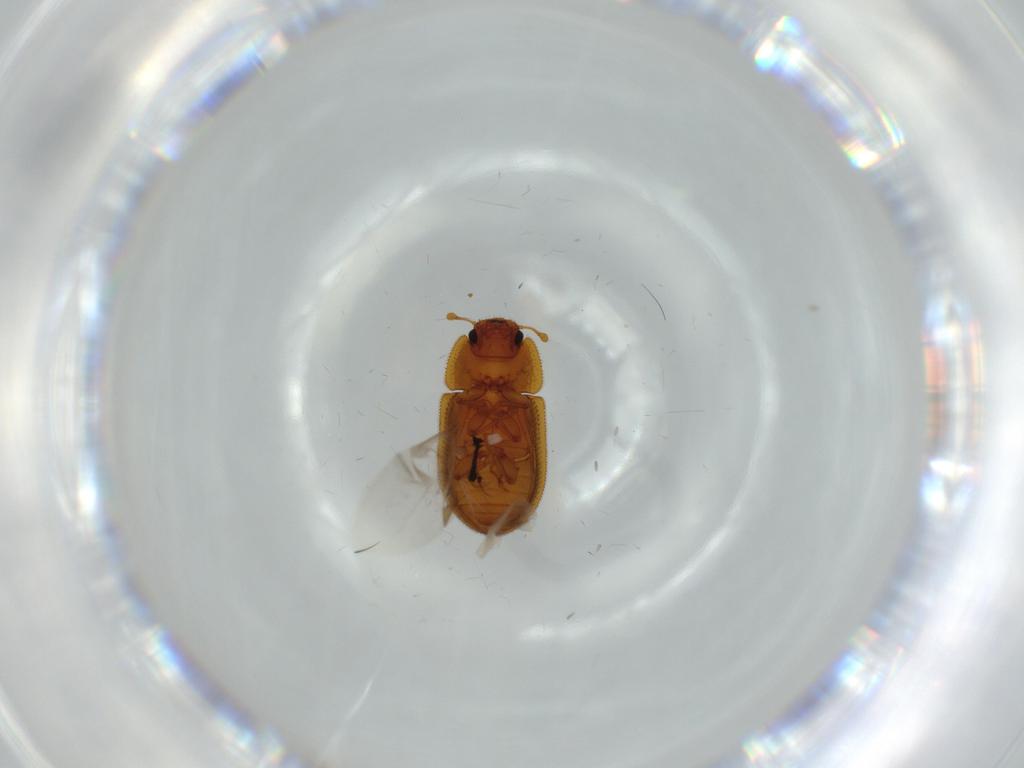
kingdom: Animalia
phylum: Arthropoda
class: Insecta
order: Coleoptera
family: Zopheridae
